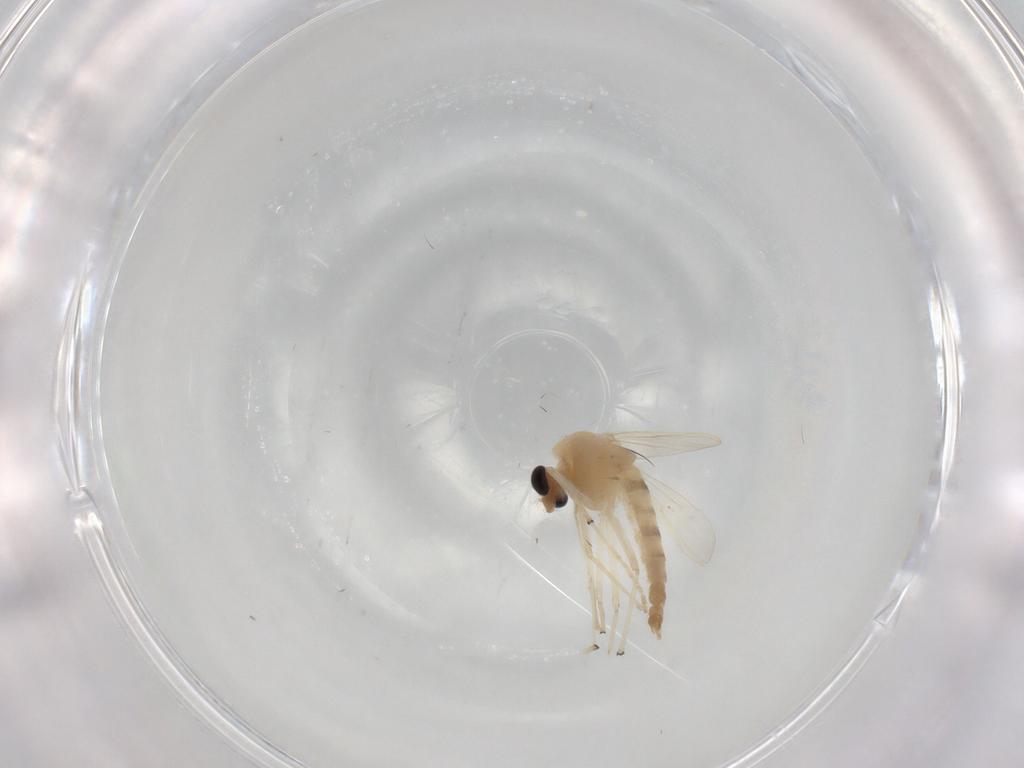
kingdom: Animalia
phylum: Arthropoda
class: Insecta
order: Diptera
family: Chironomidae
